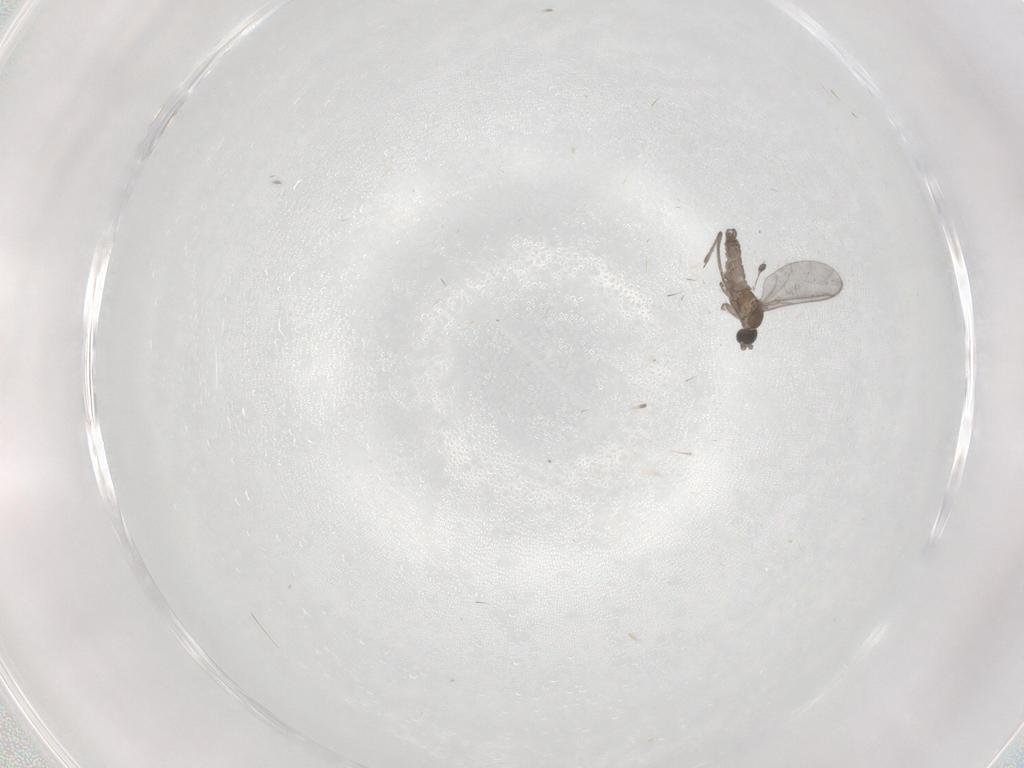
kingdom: Animalia
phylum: Arthropoda
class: Insecta
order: Diptera
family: Sciaridae
